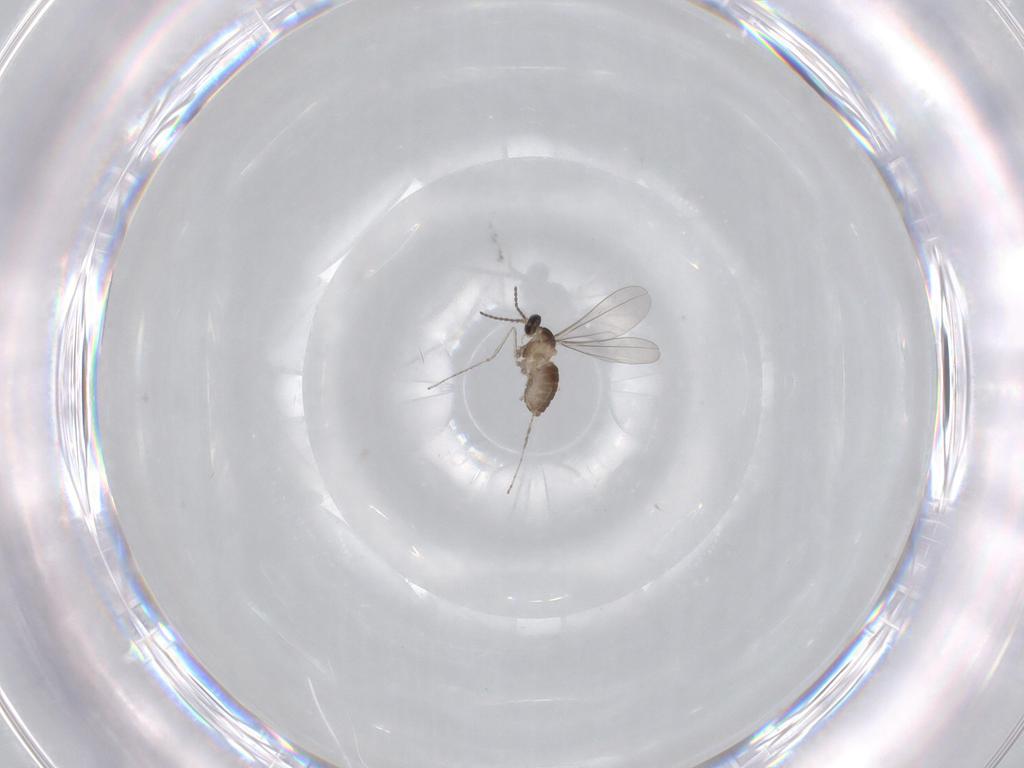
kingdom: Animalia
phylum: Arthropoda
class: Insecta
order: Diptera
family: Cecidomyiidae
